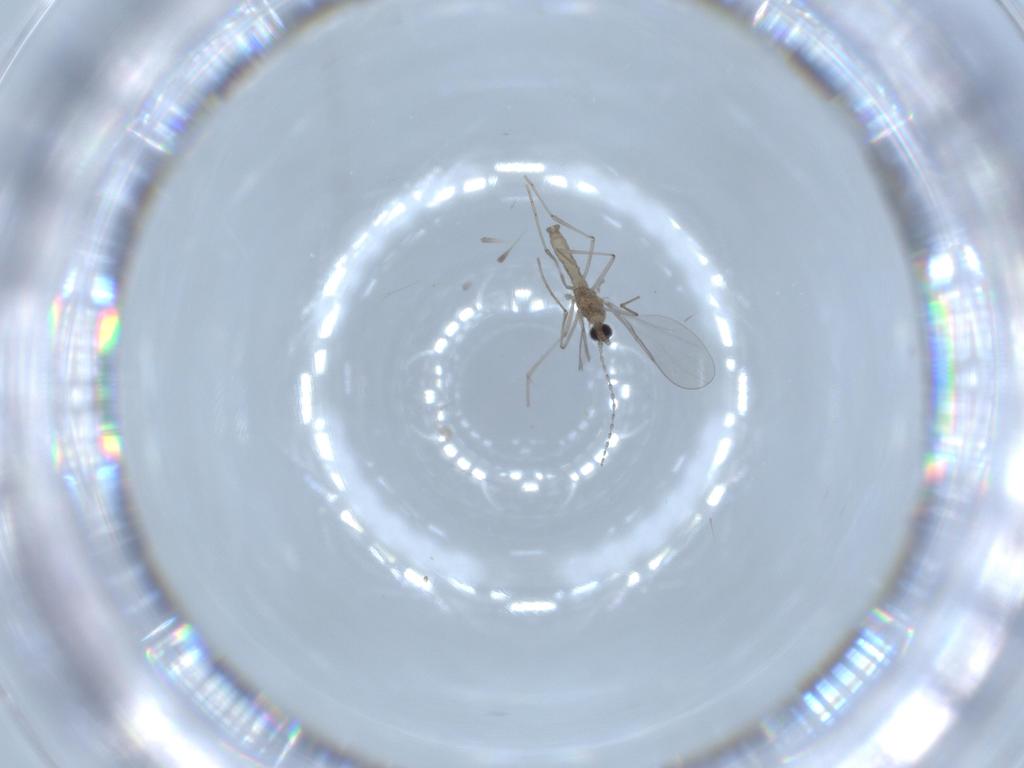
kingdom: Animalia
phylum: Arthropoda
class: Insecta
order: Diptera
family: Cecidomyiidae
